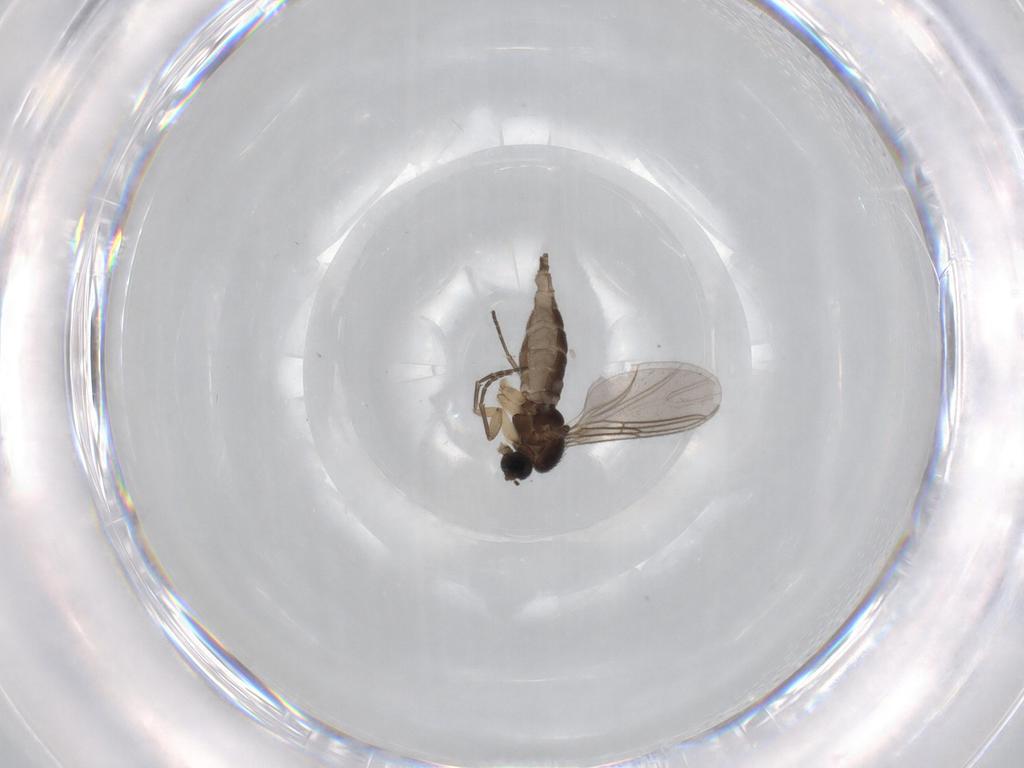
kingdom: Animalia
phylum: Arthropoda
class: Insecta
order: Diptera
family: Sciaridae
